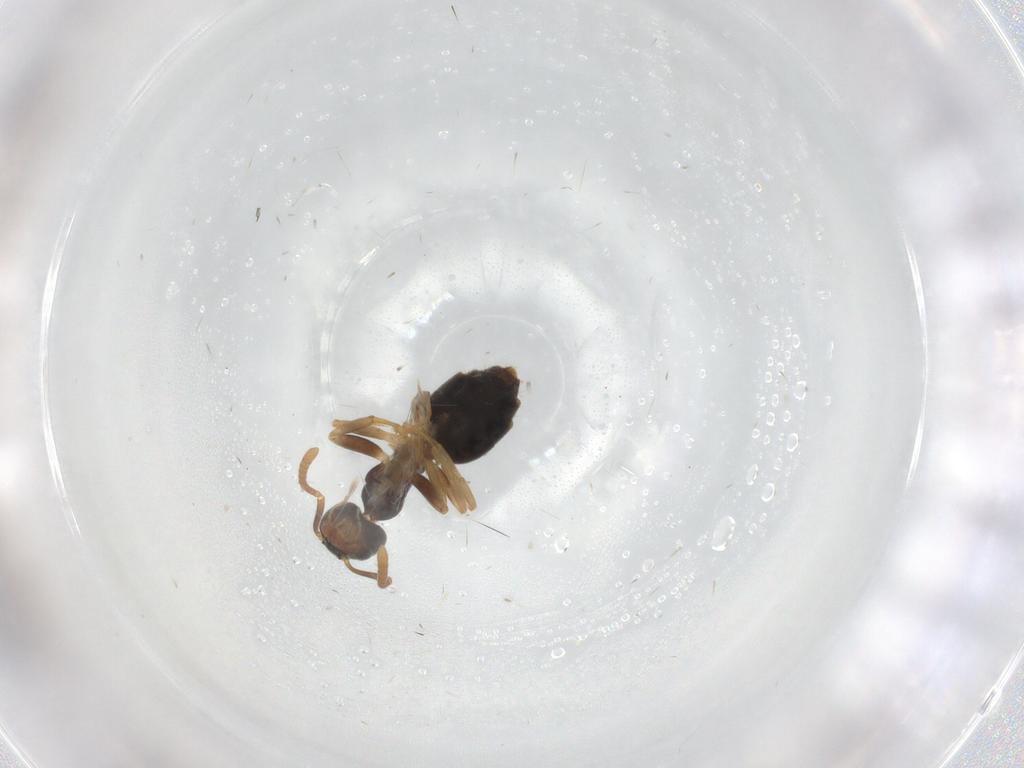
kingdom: Animalia
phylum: Arthropoda
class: Insecta
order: Hymenoptera
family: Formicidae
